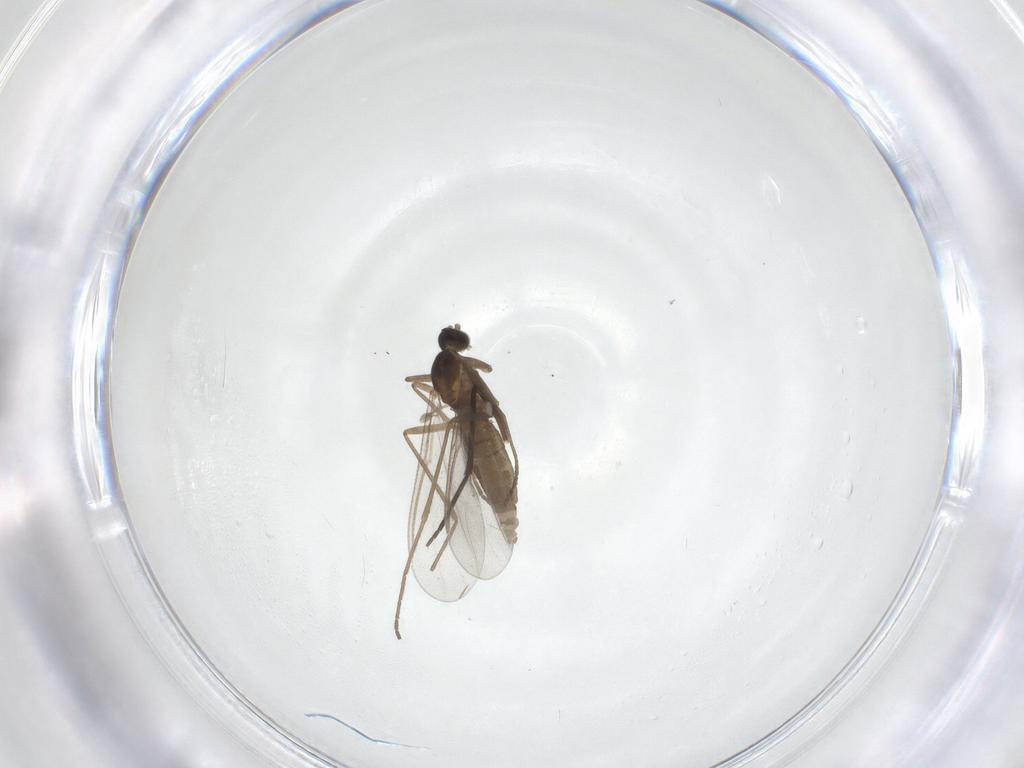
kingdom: Animalia
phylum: Arthropoda
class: Insecta
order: Diptera
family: Cecidomyiidae
